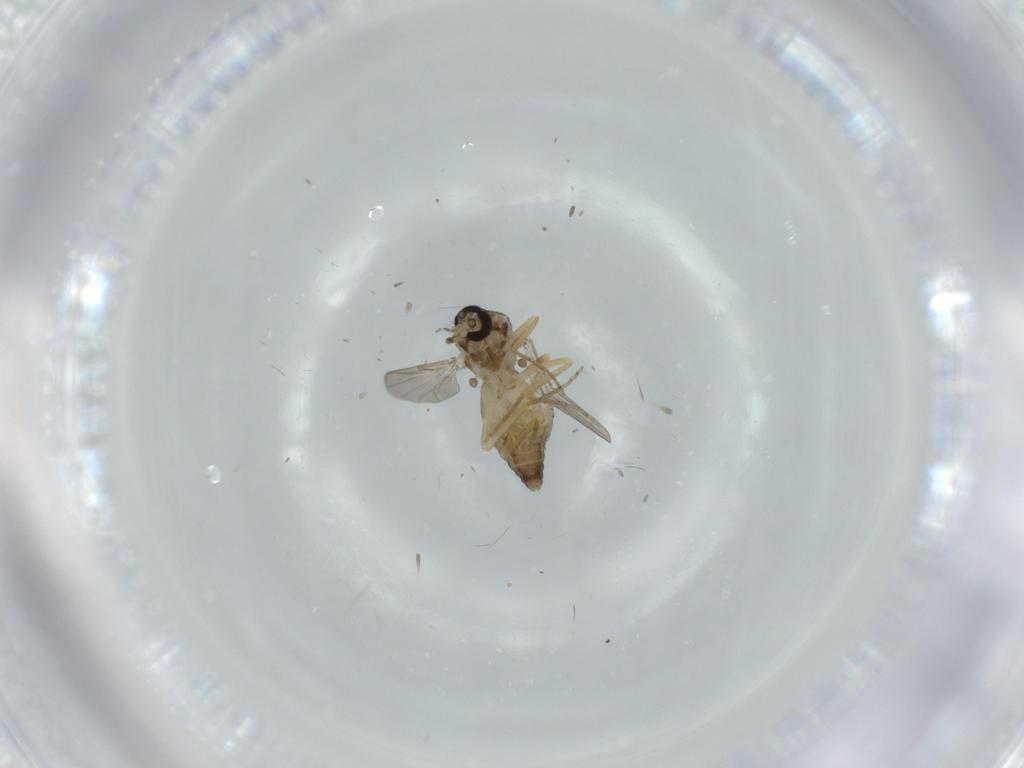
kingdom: Animalia
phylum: Arthropoda
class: Insecta
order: Diptera
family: Ceratopogonidae
